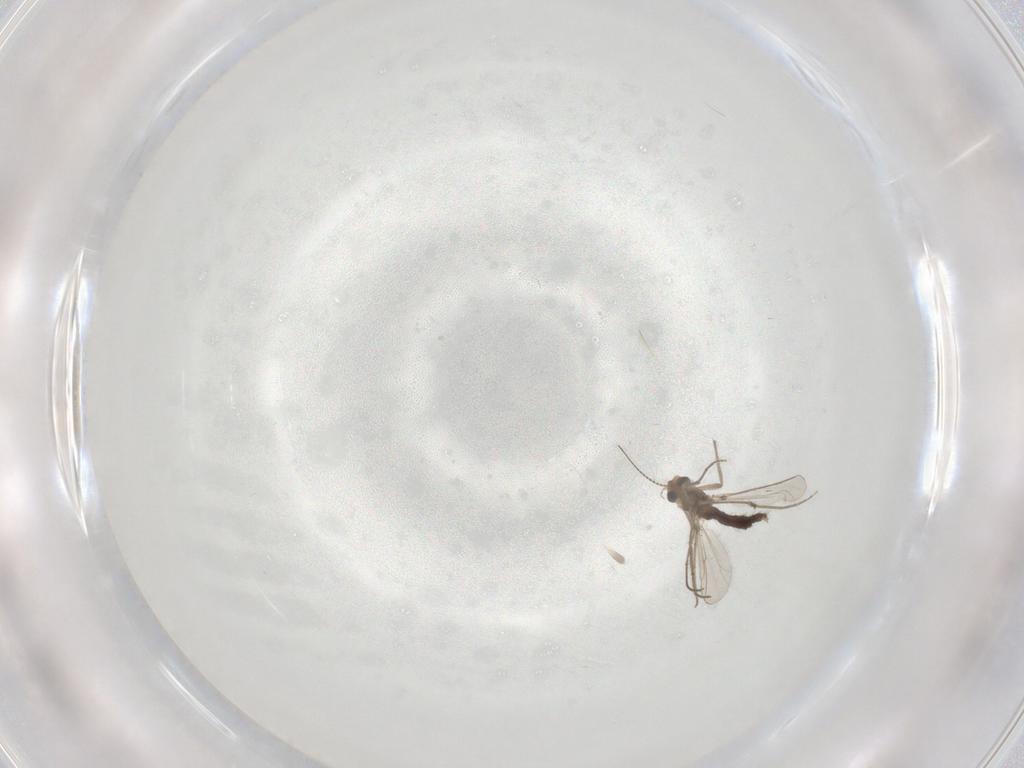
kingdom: Animalia
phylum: Arthropoda
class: Insecta
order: Diptera
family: Chironomidae
